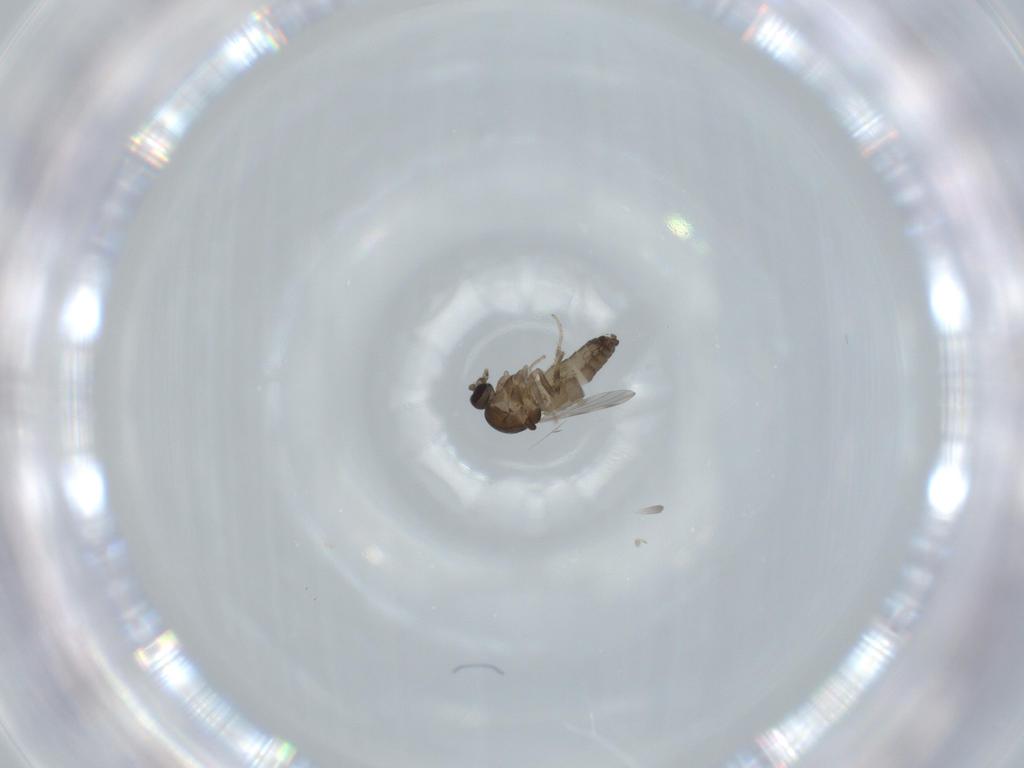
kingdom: Animalia
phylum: Arthropoda
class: Insecta
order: Diptera
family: Ceratopogonidae
